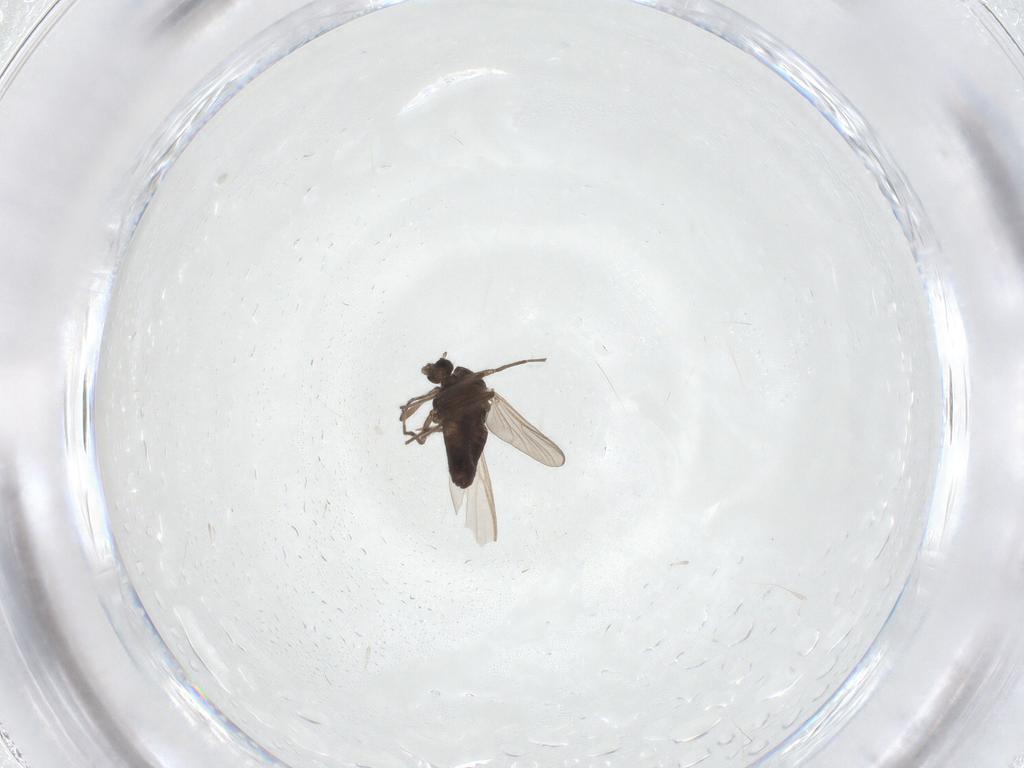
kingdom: Animalia
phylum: Arthropoda
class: Insecta
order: Diptera
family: Chironomidae
